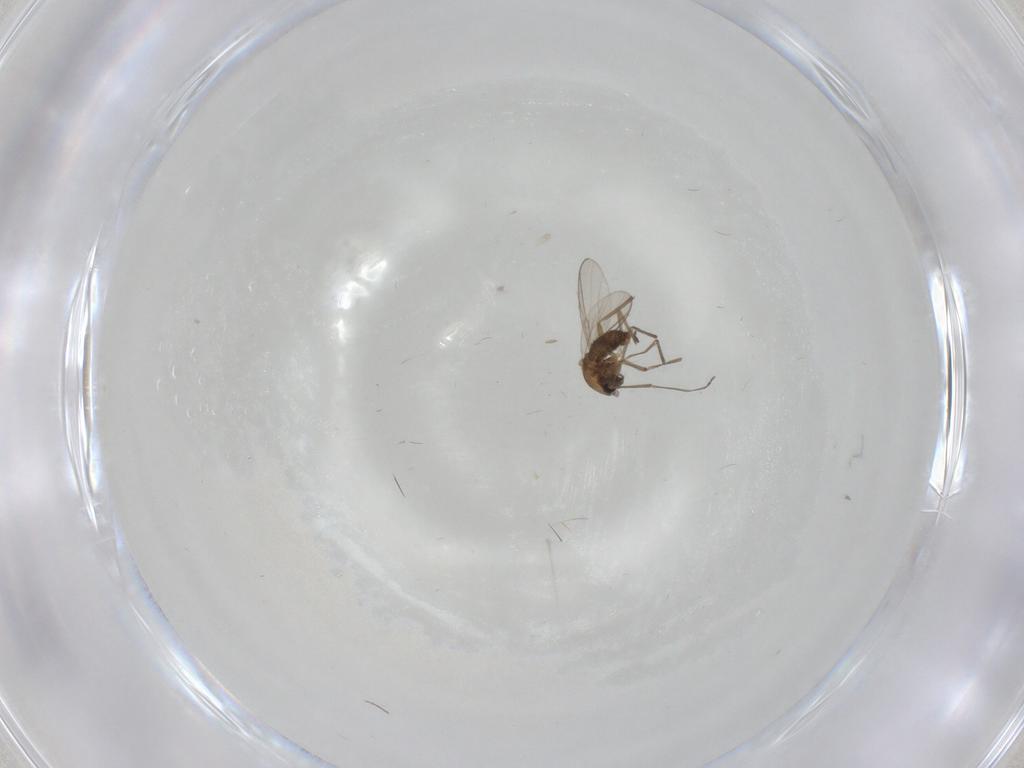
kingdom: Animalia
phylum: Arthropoda
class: Insecta
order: Diptera
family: Chironomidae
